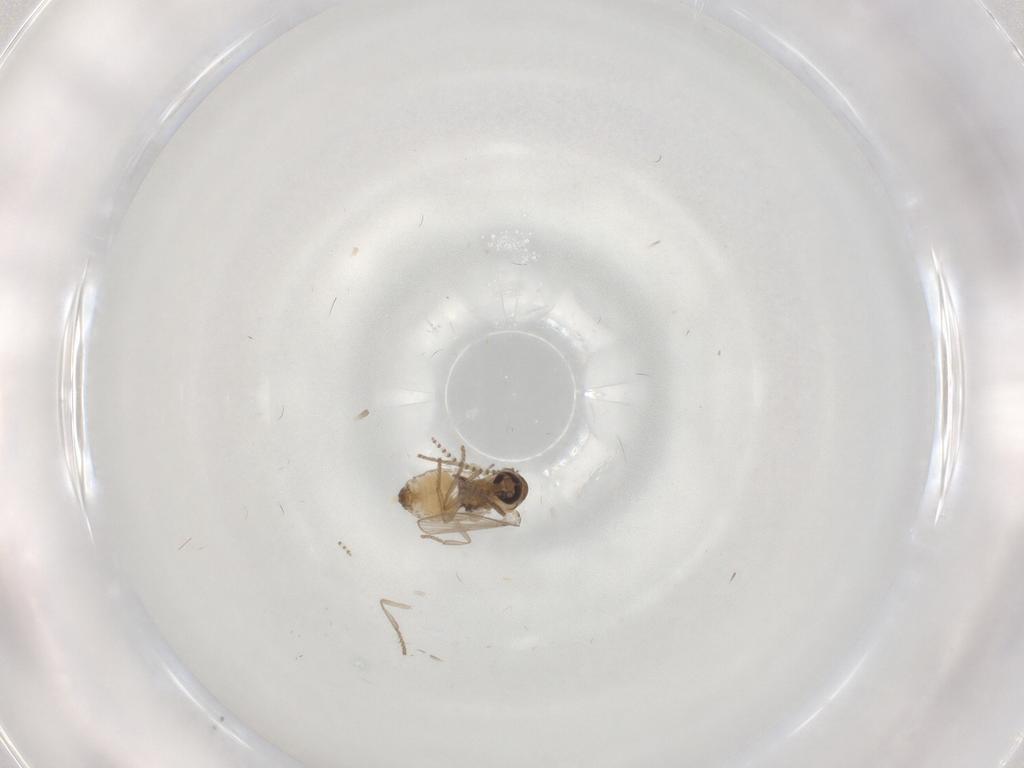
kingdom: Animalia
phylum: Arthropoda
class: Insecta
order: Diptera
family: Psychodidae
